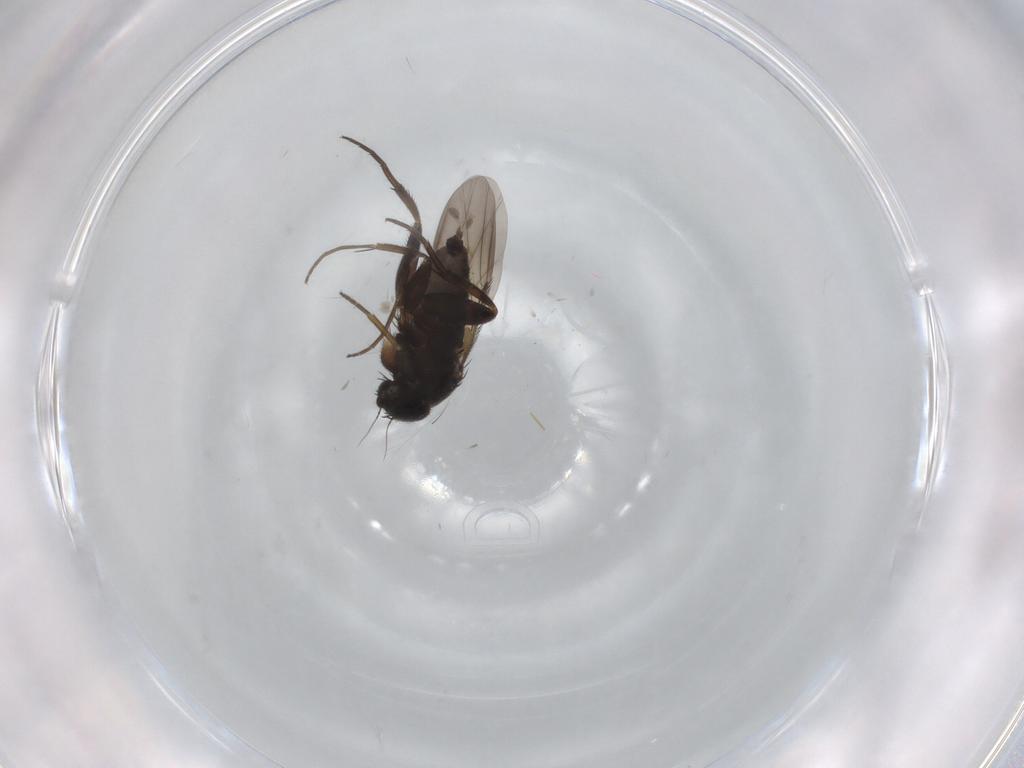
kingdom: Animalia
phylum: Arthropoda
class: Insecta
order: Diptera
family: Phoridae
